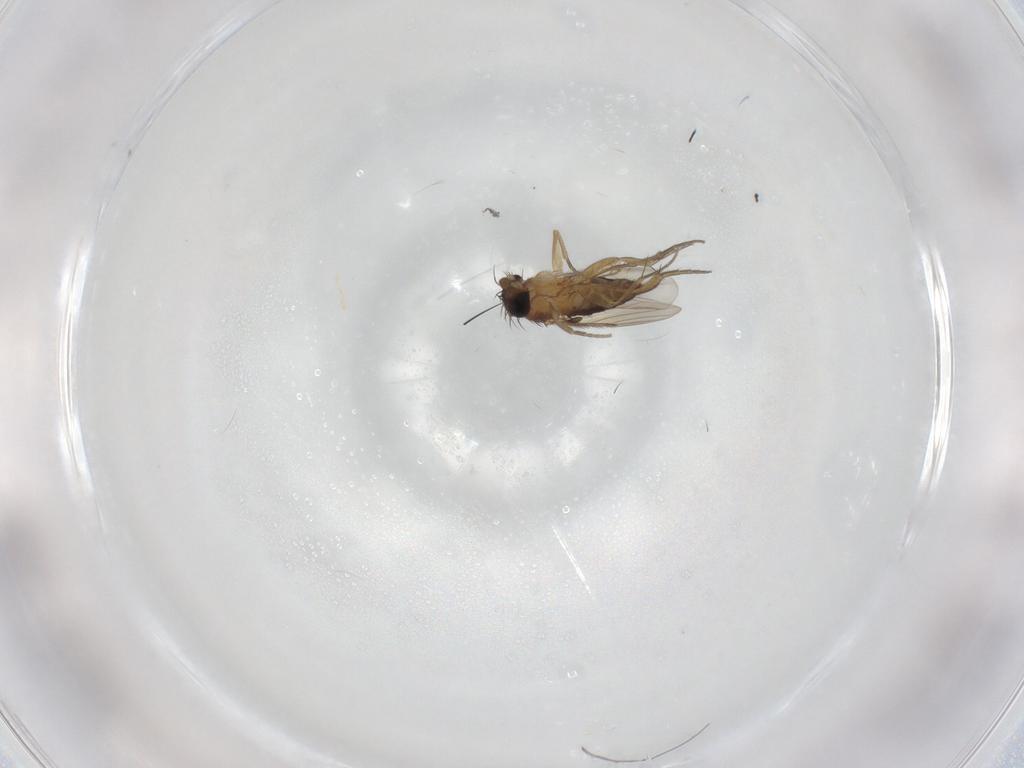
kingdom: Animalia
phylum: Arthropoda
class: Insecta
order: Diptera
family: Phoridae
